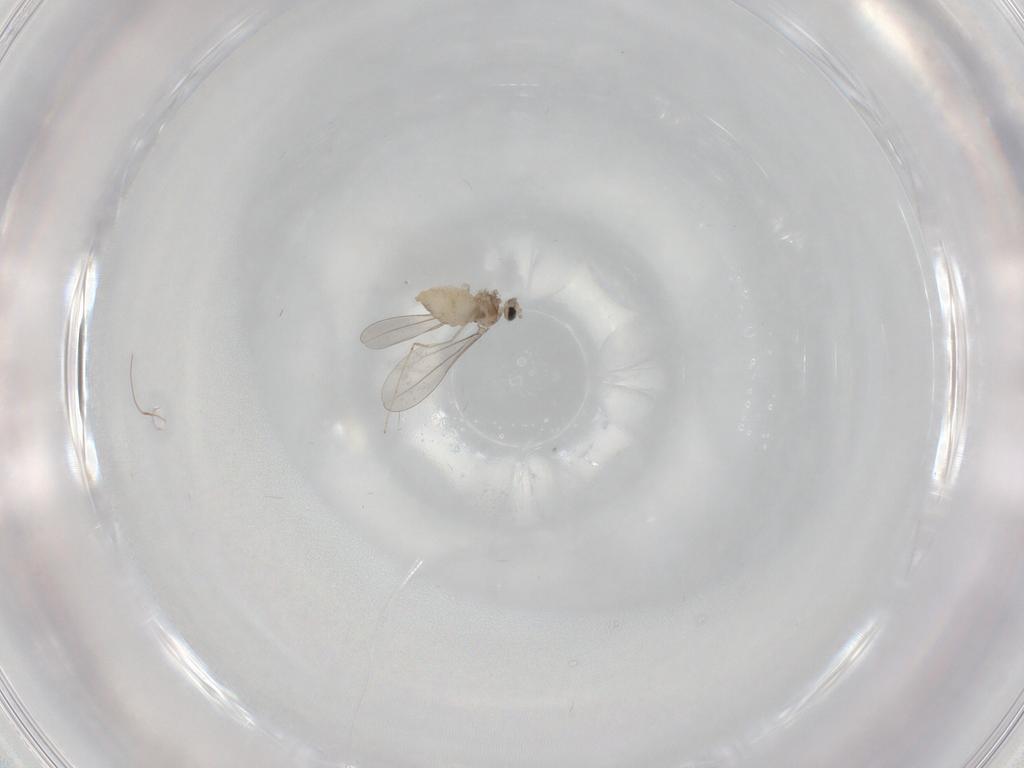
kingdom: Animalia
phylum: Arthropoda
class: Insecta
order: Diptera
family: Cecidomyiidae
